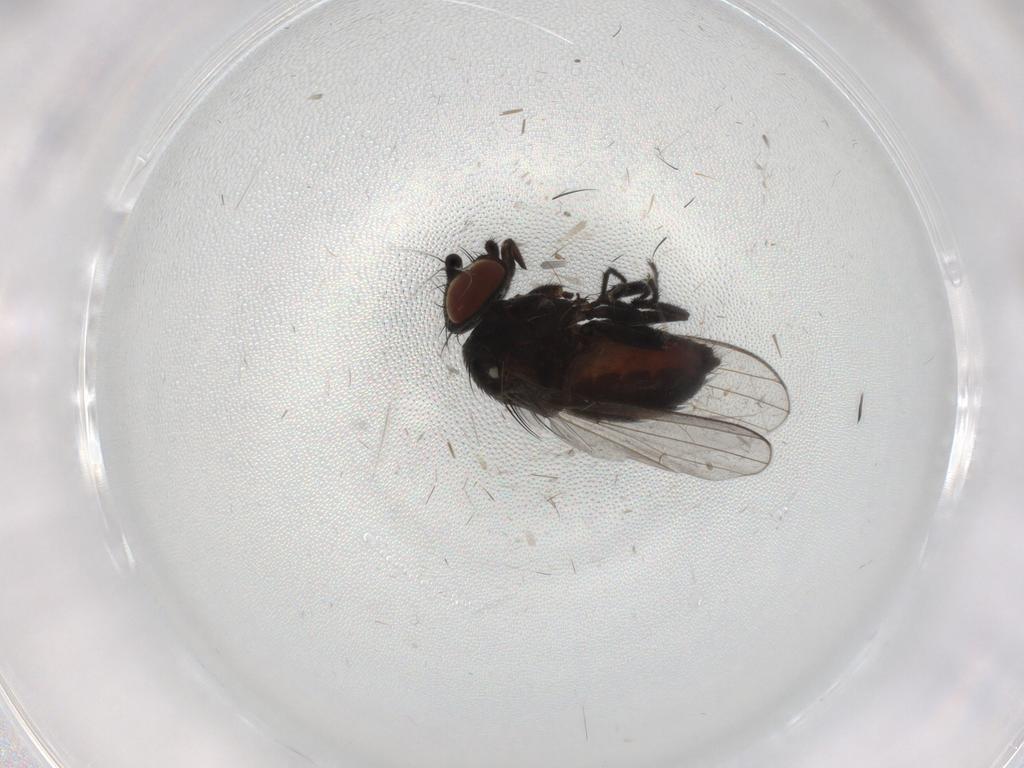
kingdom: Animalia
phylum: Arthropoda
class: Insecta
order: Diptera
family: Milichiidae
